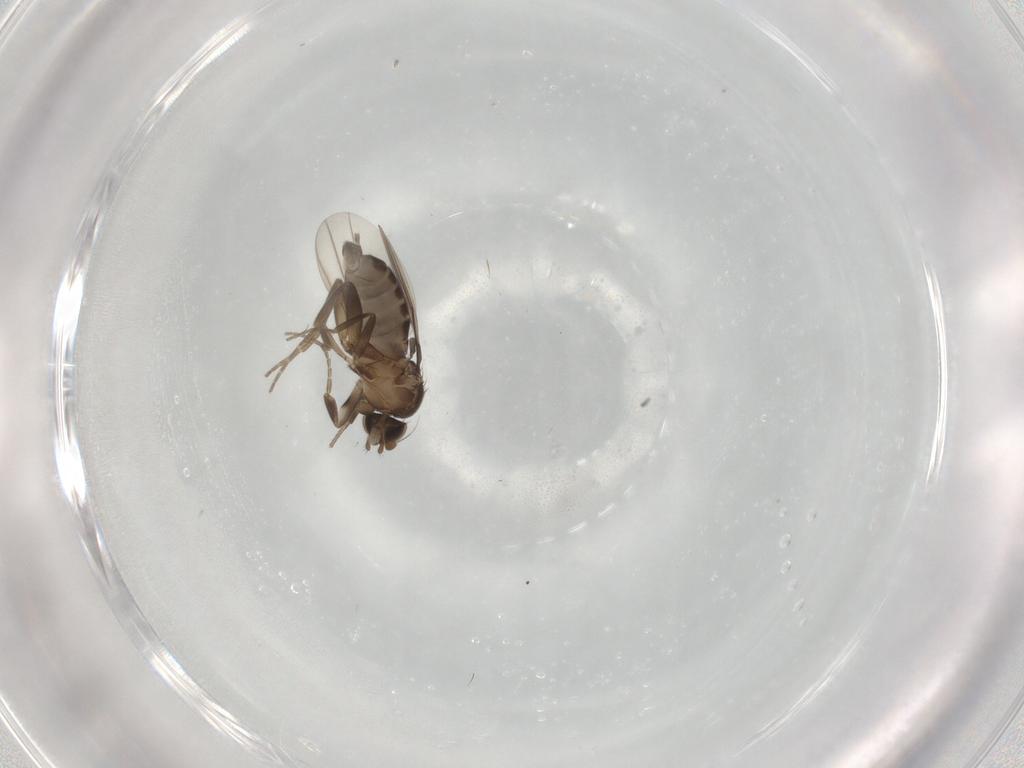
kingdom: Animalia
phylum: Arthropoda
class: Insecta
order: Diptera
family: Phoridae
